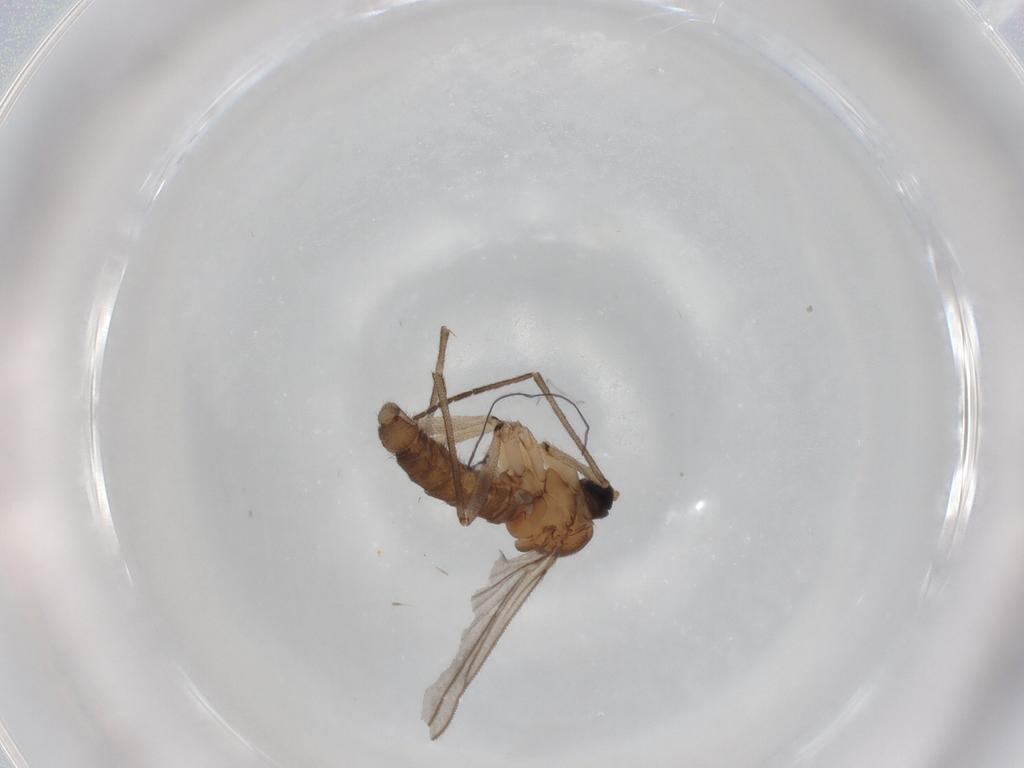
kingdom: Animalia
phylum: Arthropoda
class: Insecta
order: Diptera
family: Sciaridae
